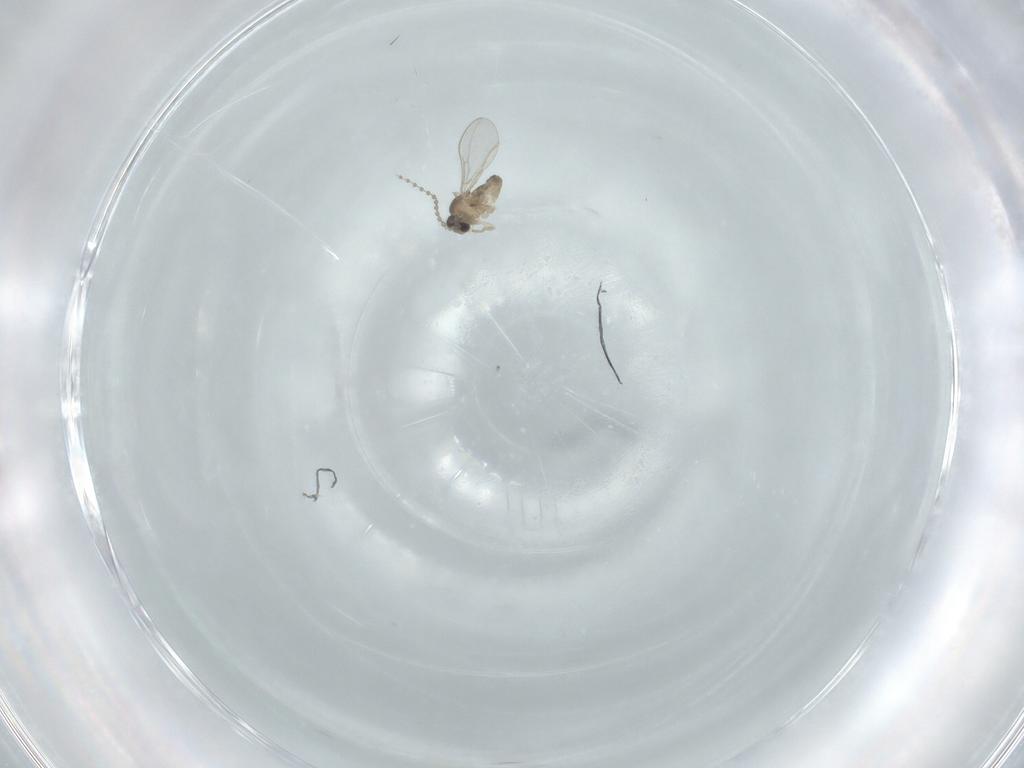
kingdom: Animalia
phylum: Arthropoda
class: Insecta
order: Diptera
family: Cecidomyiidae
